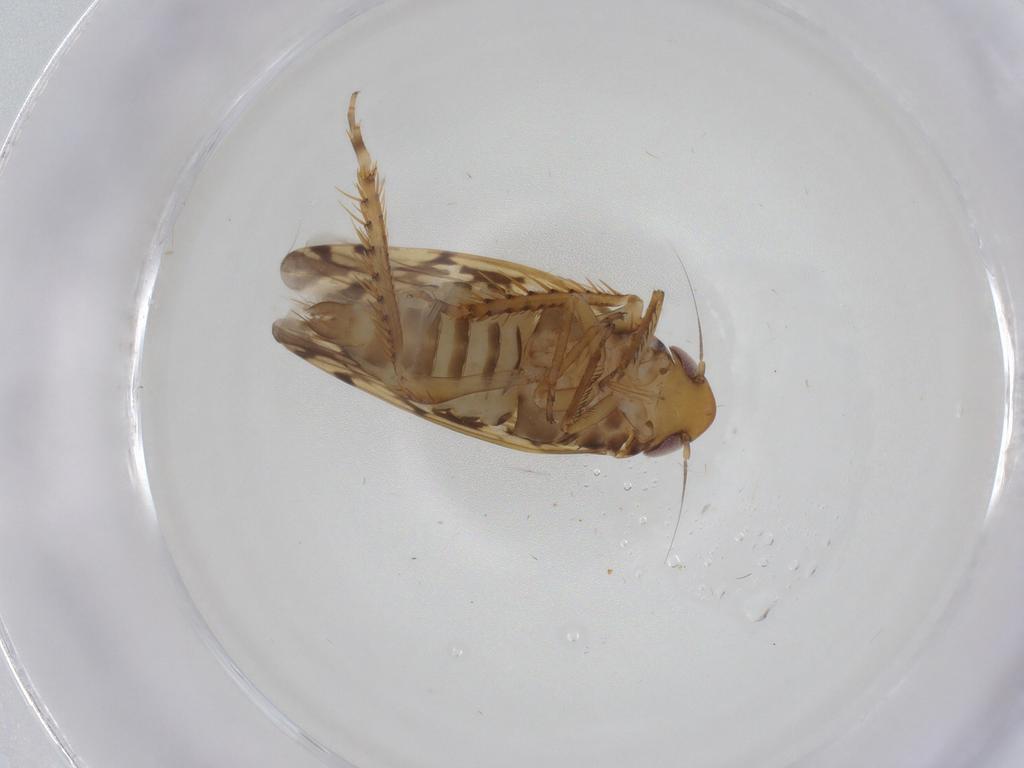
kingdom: Animalia
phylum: Arthropoda
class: Insecta
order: Hemiptera
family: Cicadellidae
